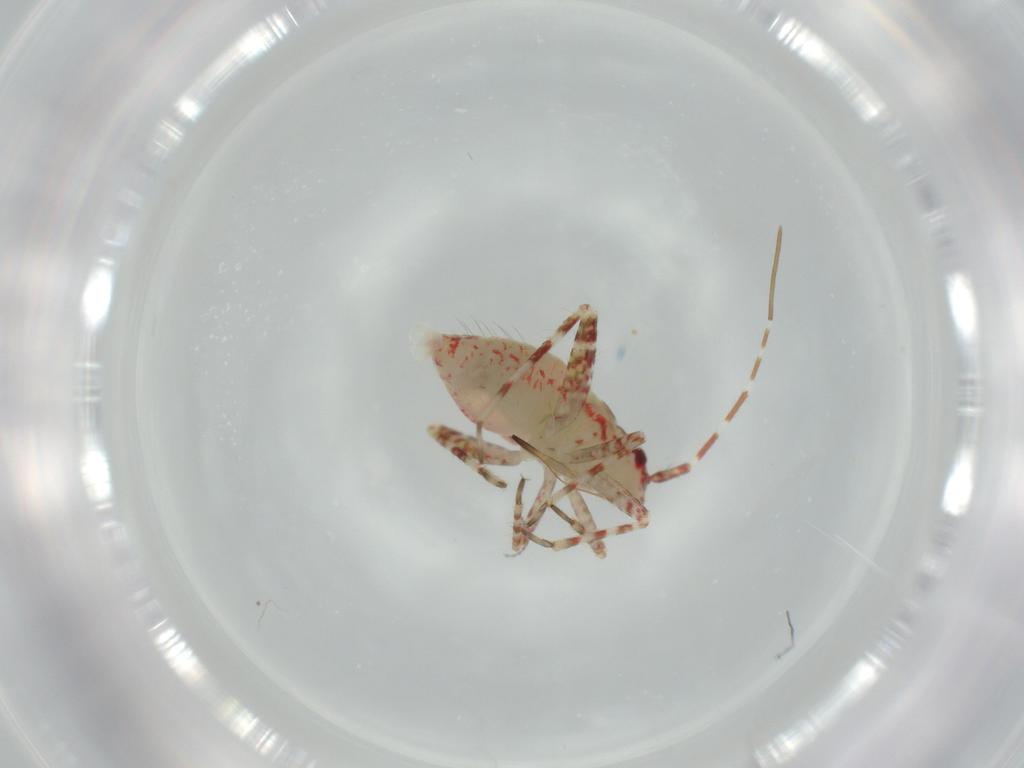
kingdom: Animalia
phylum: Arthropoda
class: Insecta
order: Hemiptera
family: Miridae
